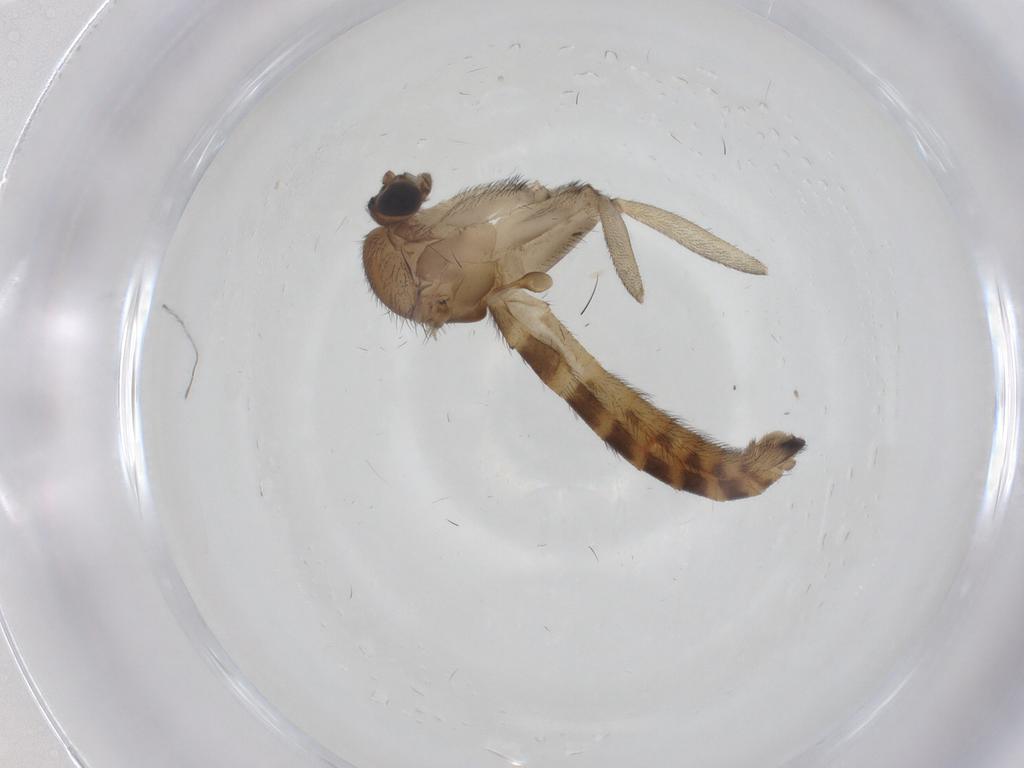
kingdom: Animalia
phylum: Arthropoda
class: Insecta
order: Diptera
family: Keroplatidae
